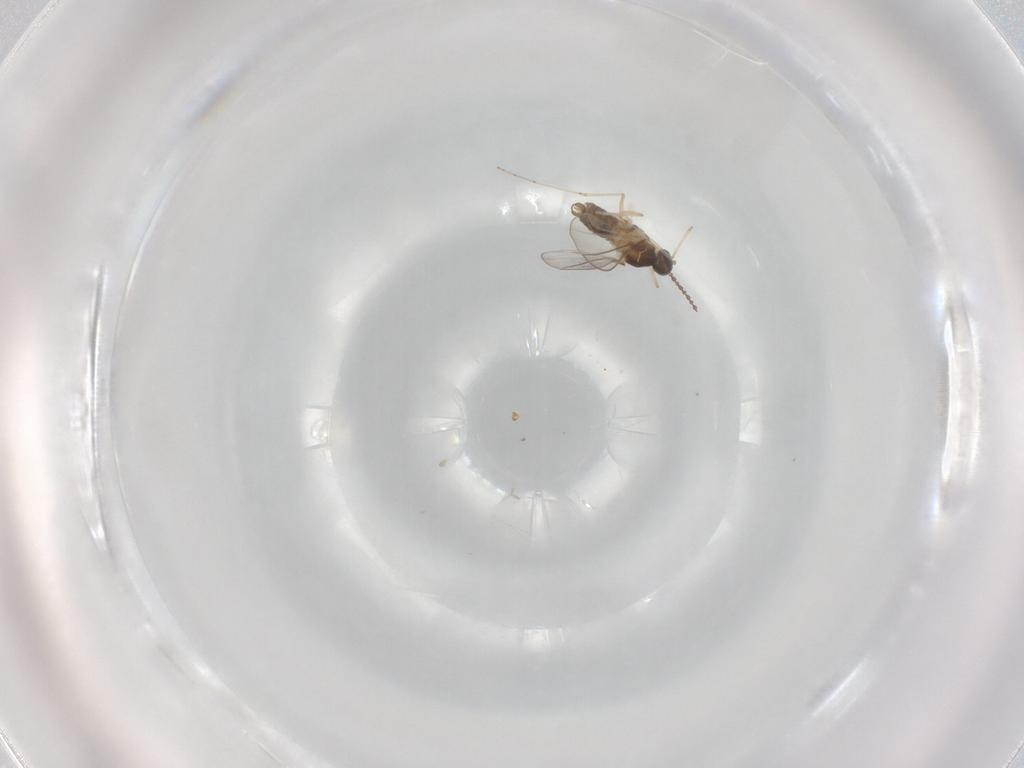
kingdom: Animalia
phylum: Arthropoda
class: Insecta
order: Diptera
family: Cecidomyiidae
